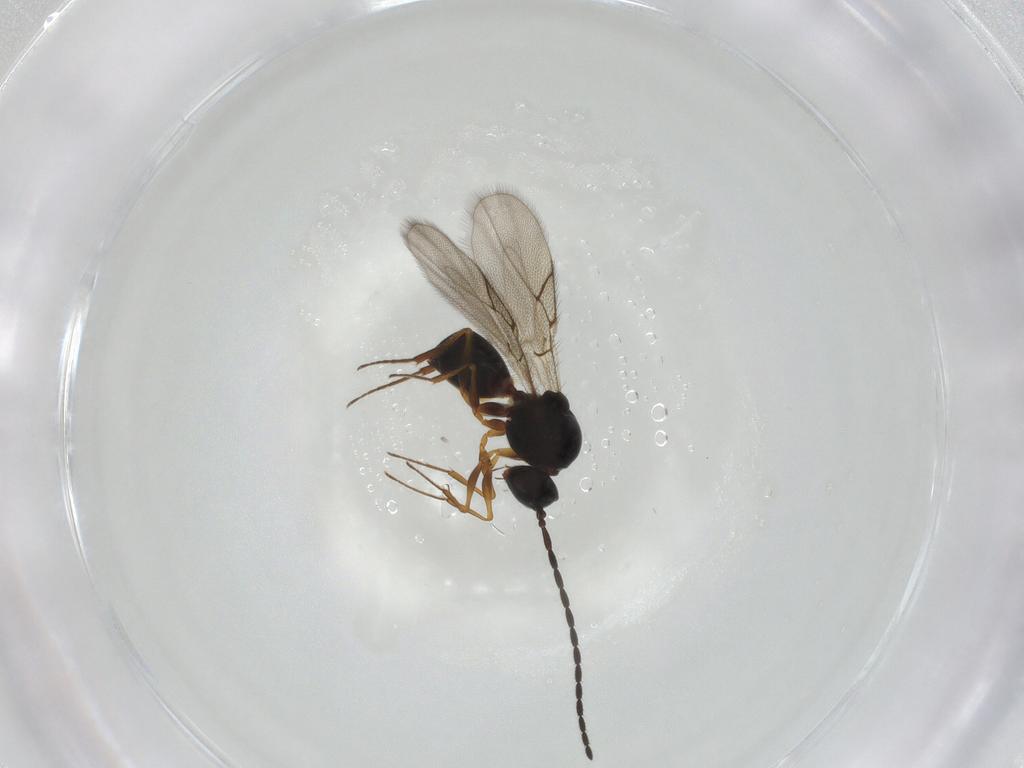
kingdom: Animalia
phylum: Arthropoda
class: Insecta
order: Hymenoptera
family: Figitidae
